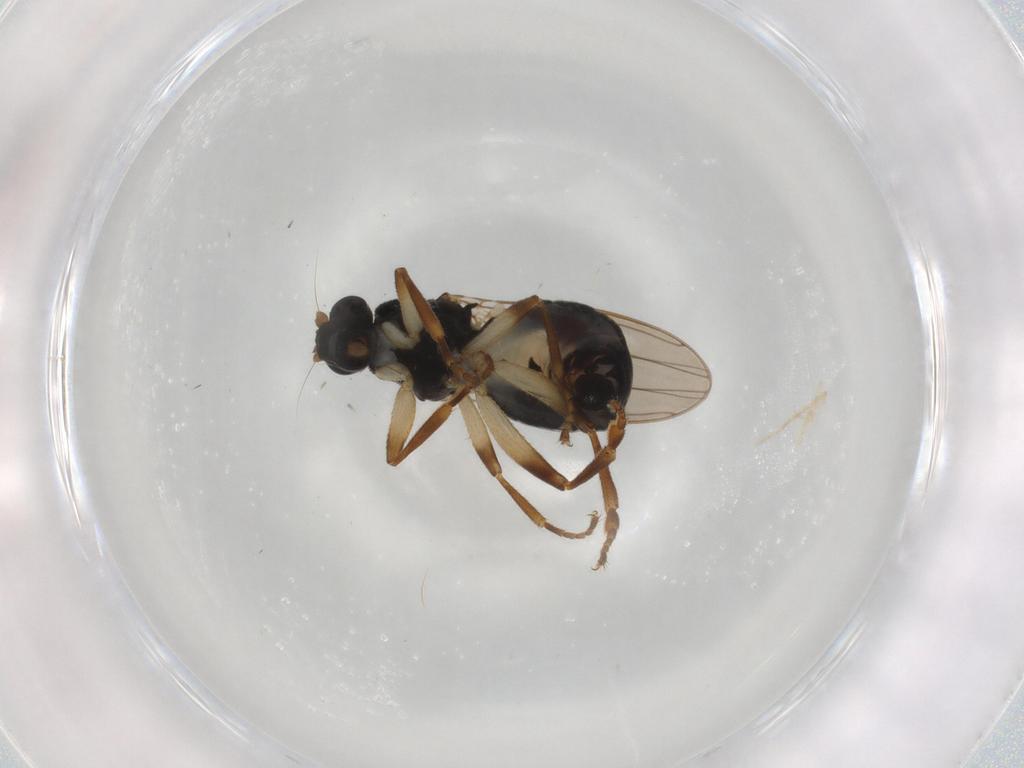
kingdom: Animalia
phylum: Arthropoda
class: Insecta
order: Diptera
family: Sphaeroceridae
